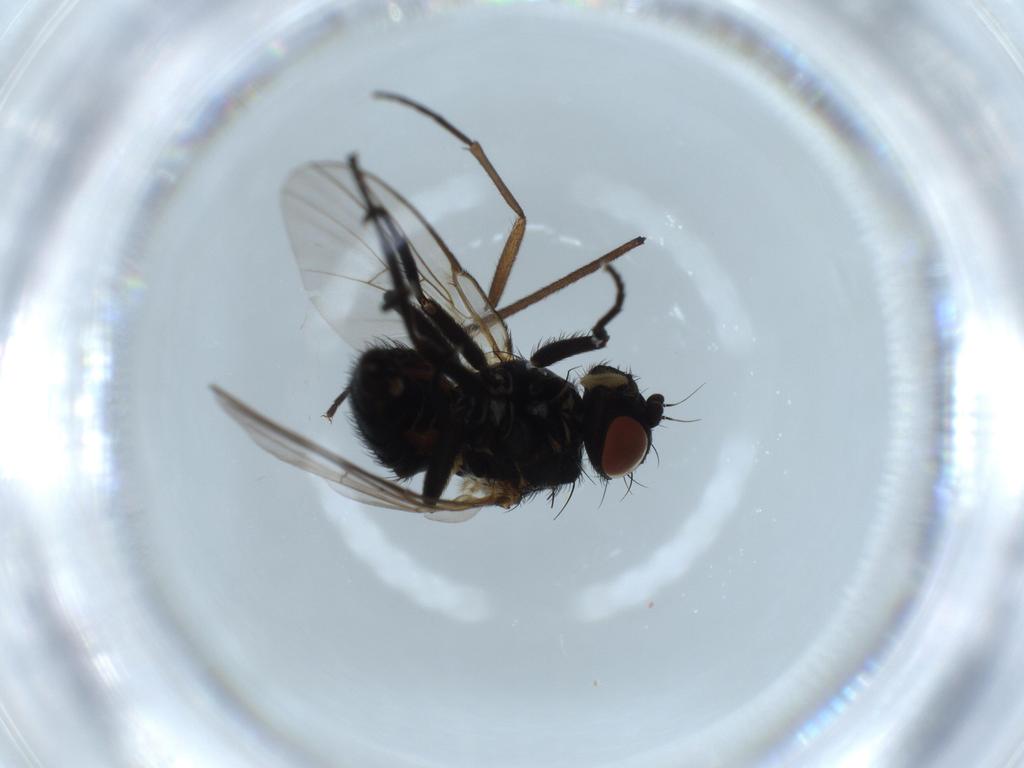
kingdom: Animalia
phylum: Arthropoda
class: Insecta
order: Diptera
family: Agromyzidae
